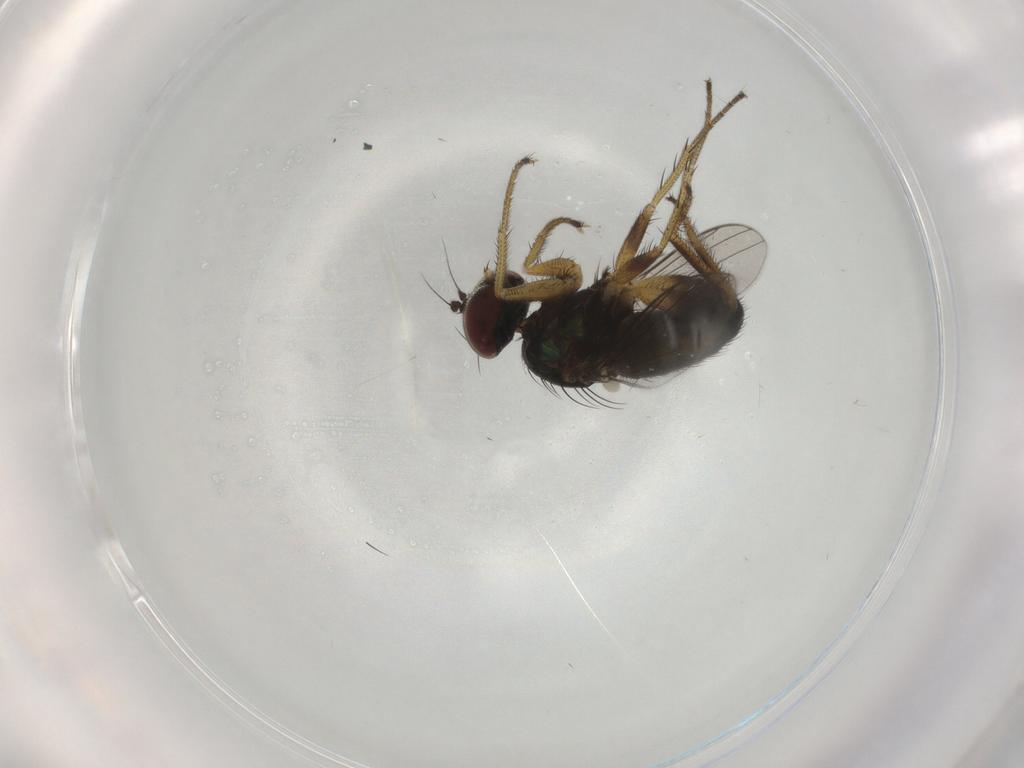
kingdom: Animalia
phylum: Arthropoda
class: Insecta
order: Diptera
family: Dolichopodidae
